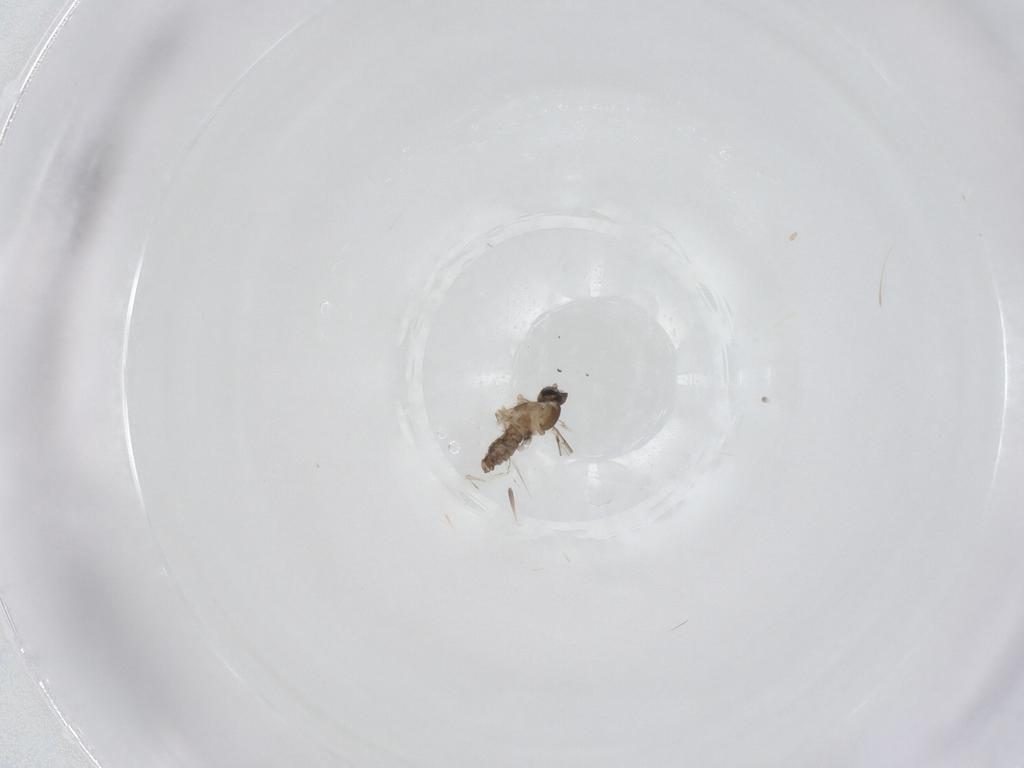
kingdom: Animalia
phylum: Arthropoda
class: Insecta
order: Diptera
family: Cecidomyiidae
